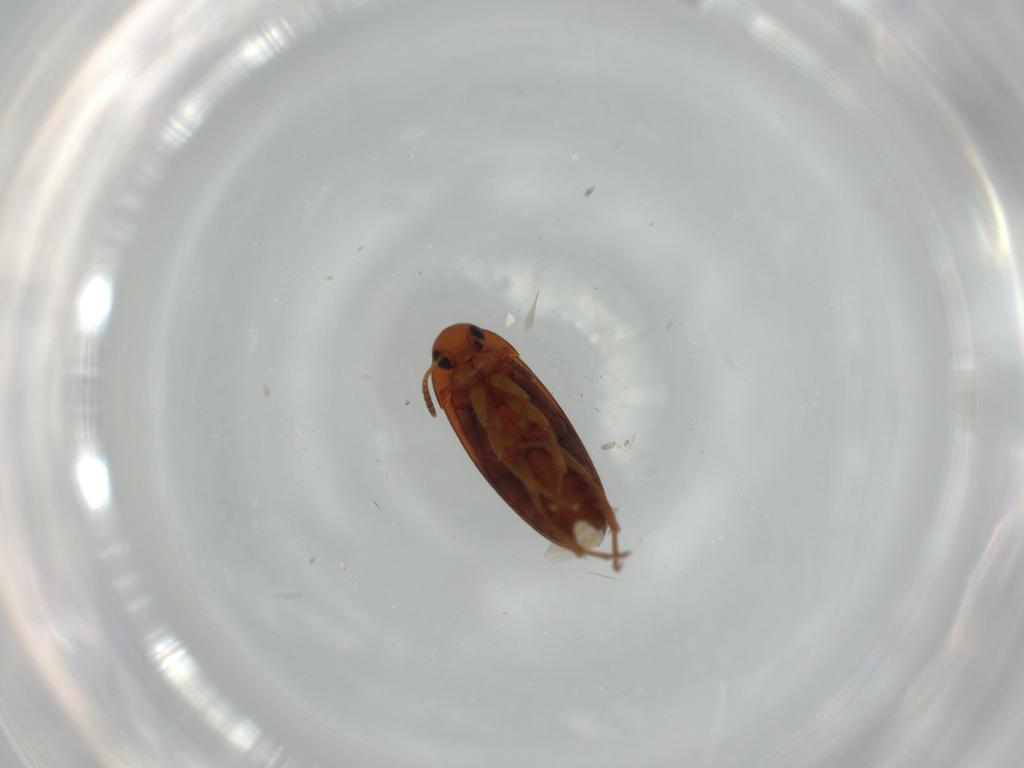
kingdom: Animalia
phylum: Arthropoda
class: Insecta
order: Coleoptera
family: Scraptiidae
